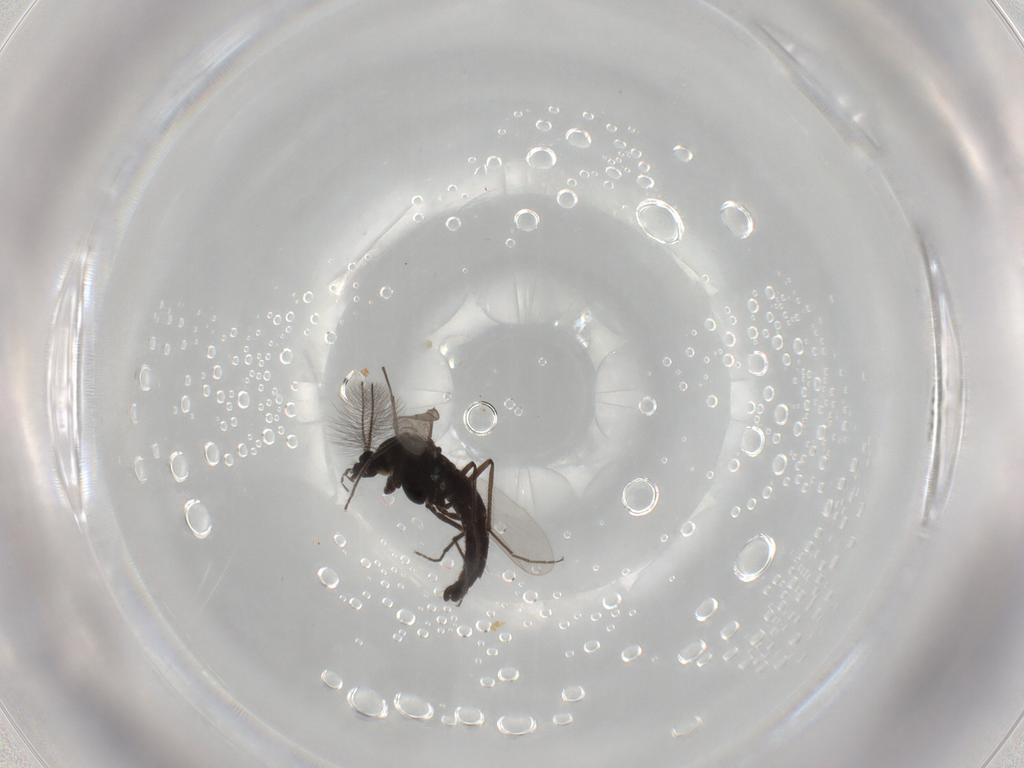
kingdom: Animalia
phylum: Arthropoda
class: Insecta
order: Diptera
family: Chironomidae
